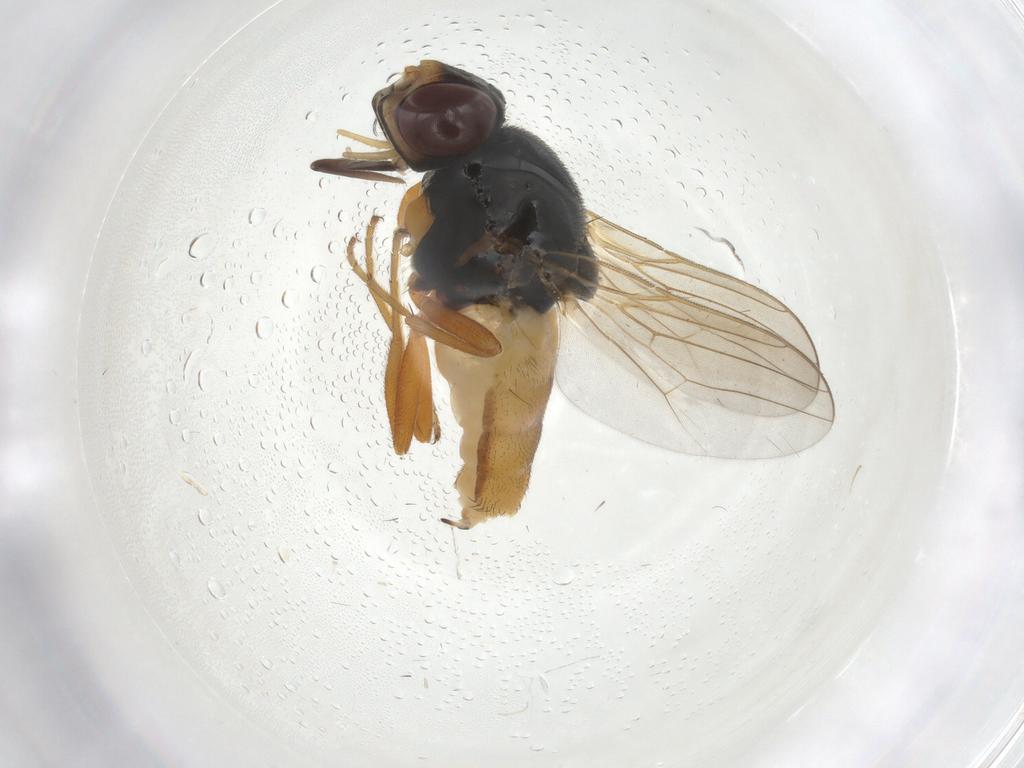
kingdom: Animalia
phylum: Arthropoda
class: Insecta
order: Diptera
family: Chloropidae
